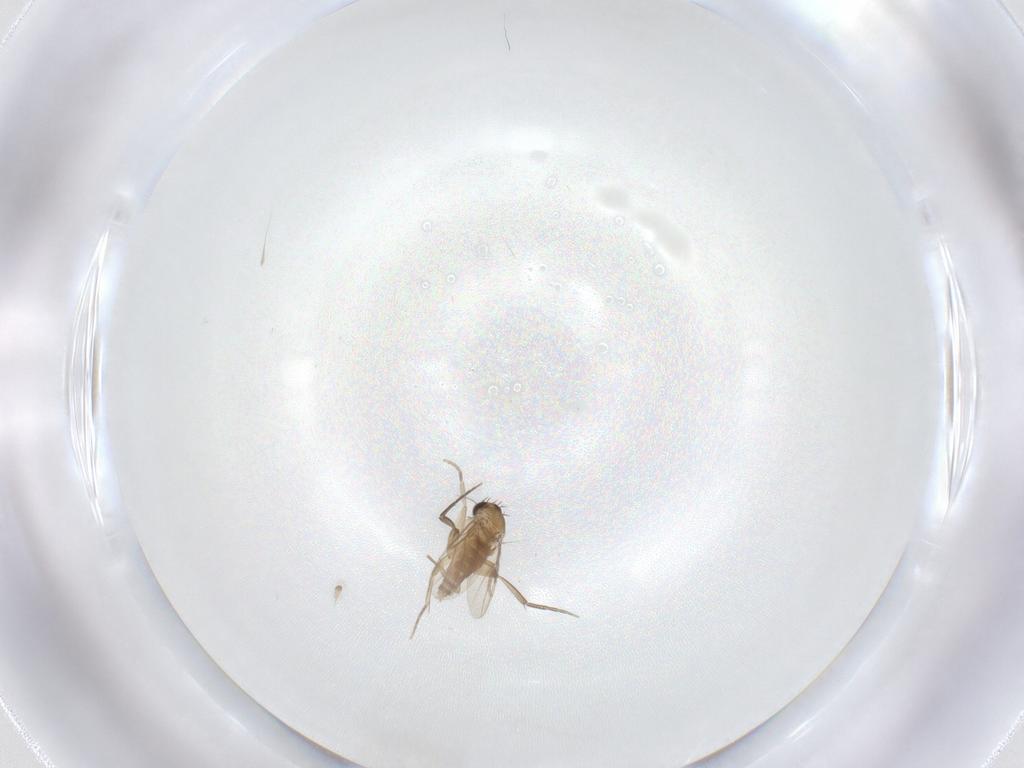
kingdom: Animalia
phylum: Arthropoda
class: Insecta
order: Diptera
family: Phoridae
